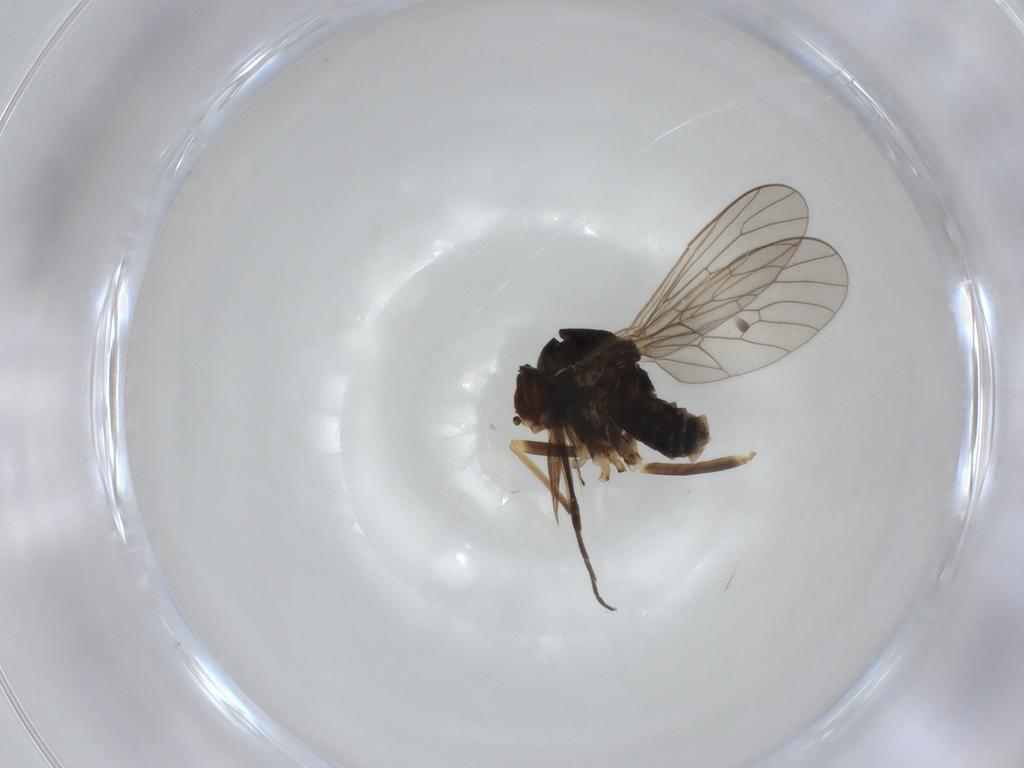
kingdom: Animalia
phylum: Arthropoda
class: Insecta
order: Diptera
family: Bombyliidae
